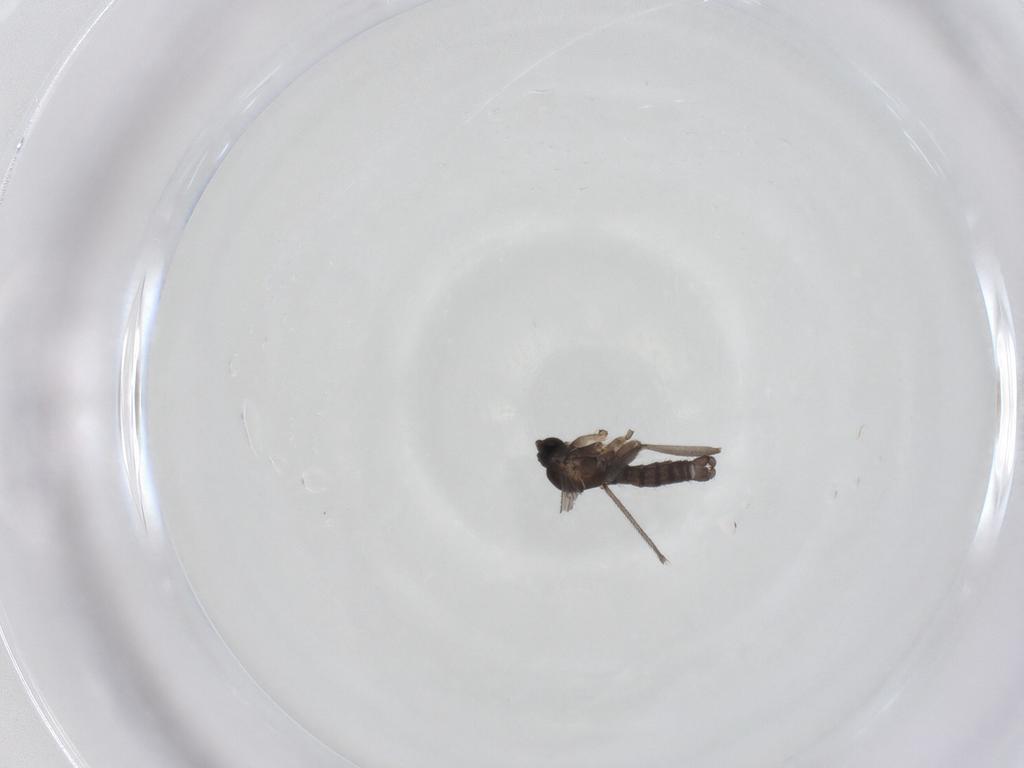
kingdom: Animalia
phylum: Arthropoda
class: Insecta
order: Diptera
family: Sciaridae
